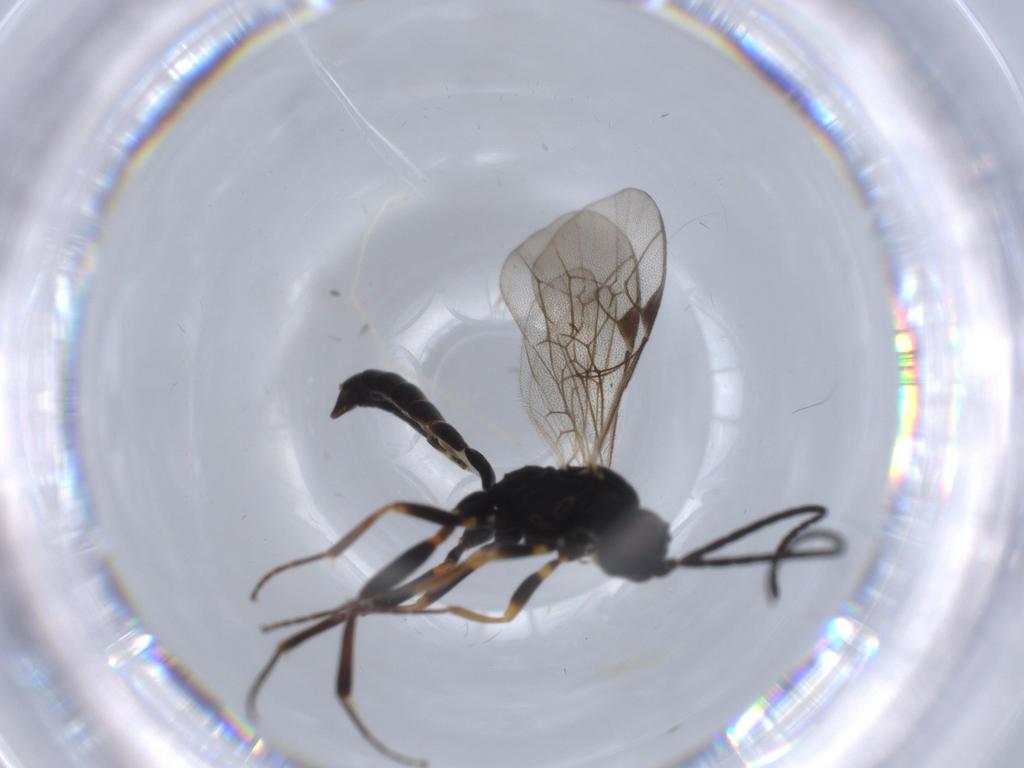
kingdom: Animalia
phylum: Arthropoda
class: Insecta
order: Hymenoptera
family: Ichneumonidae
